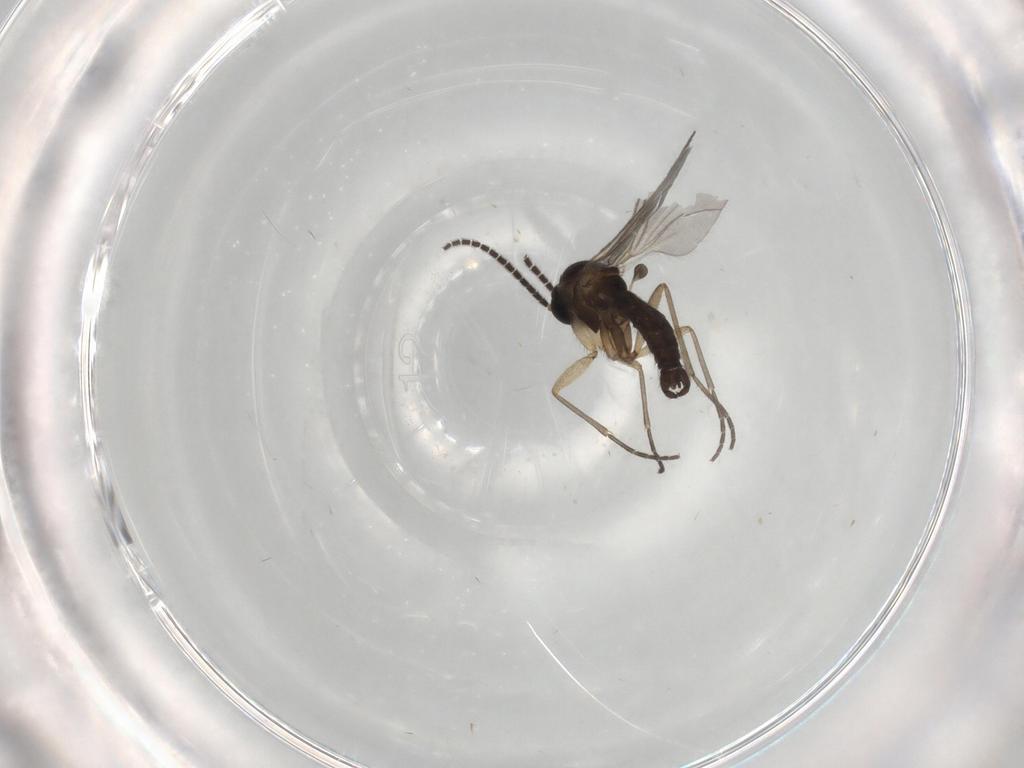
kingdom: Animalia
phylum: Arthropoda
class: Insecta
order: Diptera
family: Sciaridae
